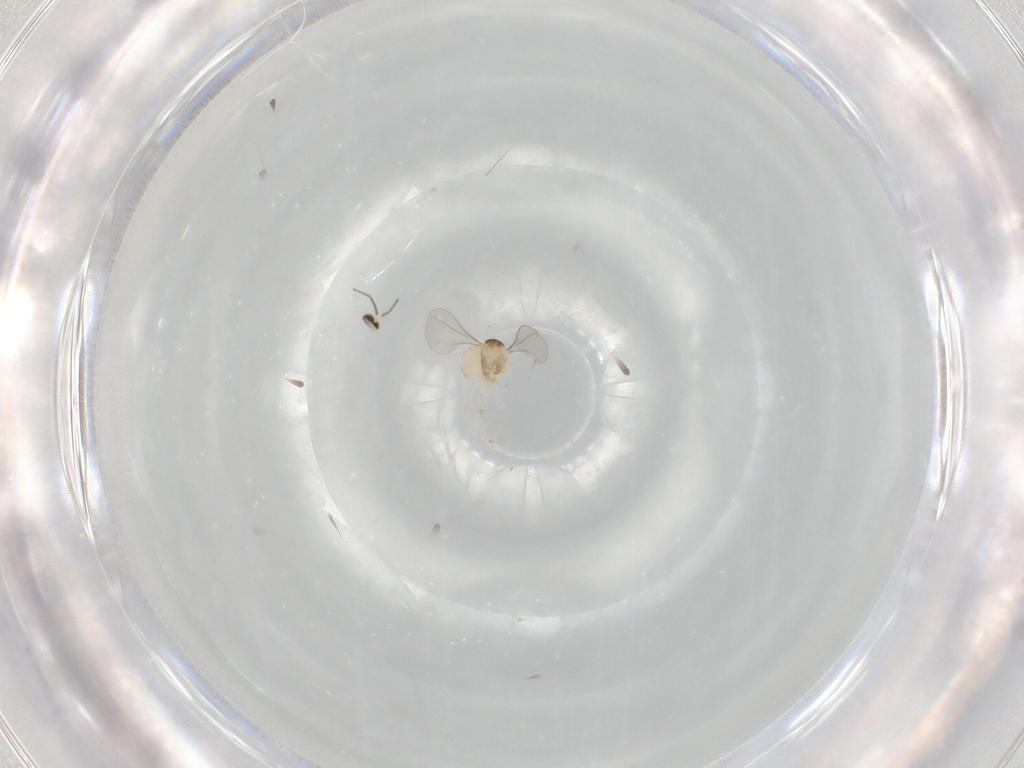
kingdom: Animalia
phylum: Arthropoda
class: Insecta
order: Diptera
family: Cecidomyiidae
